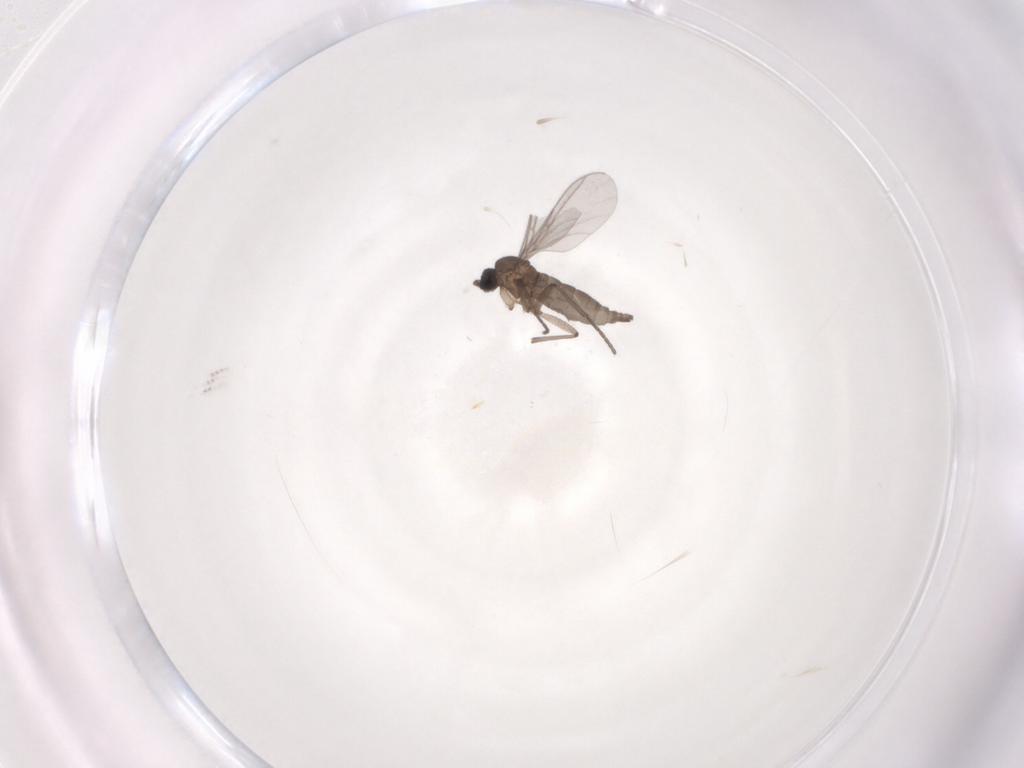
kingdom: Animalia
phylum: Arthropoda
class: Insecta
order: Diptera
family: Cecidomyiidae
